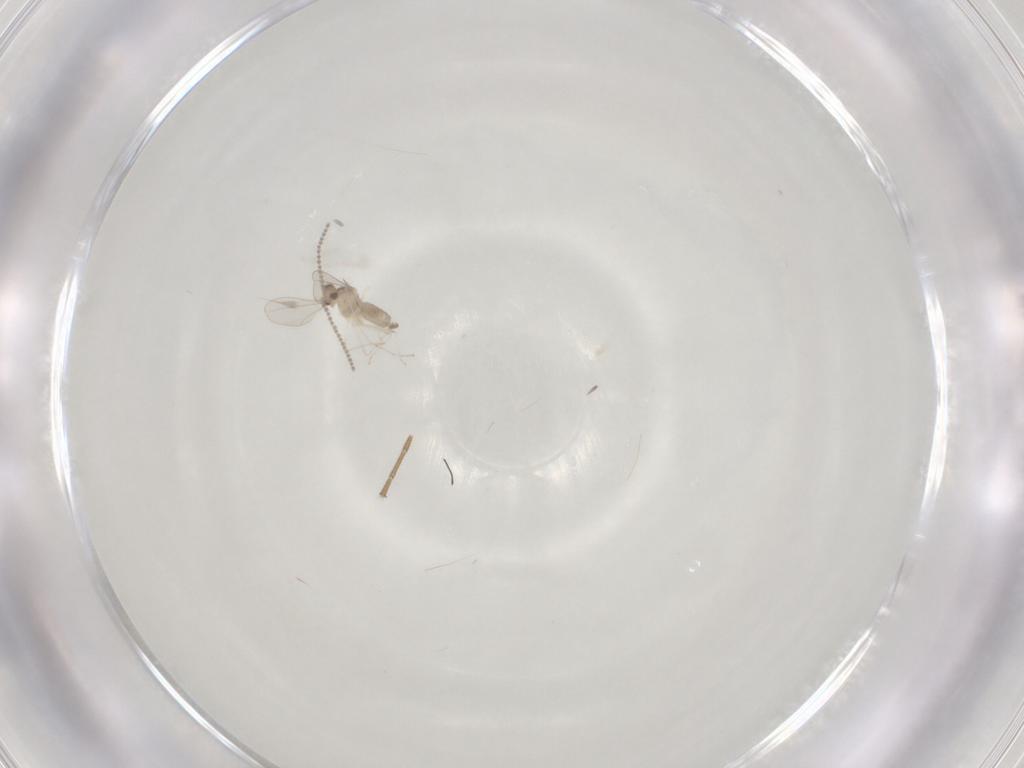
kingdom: Animalia
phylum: Arthropoda
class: Insecta
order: Diptera
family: Cecidomyiidae
